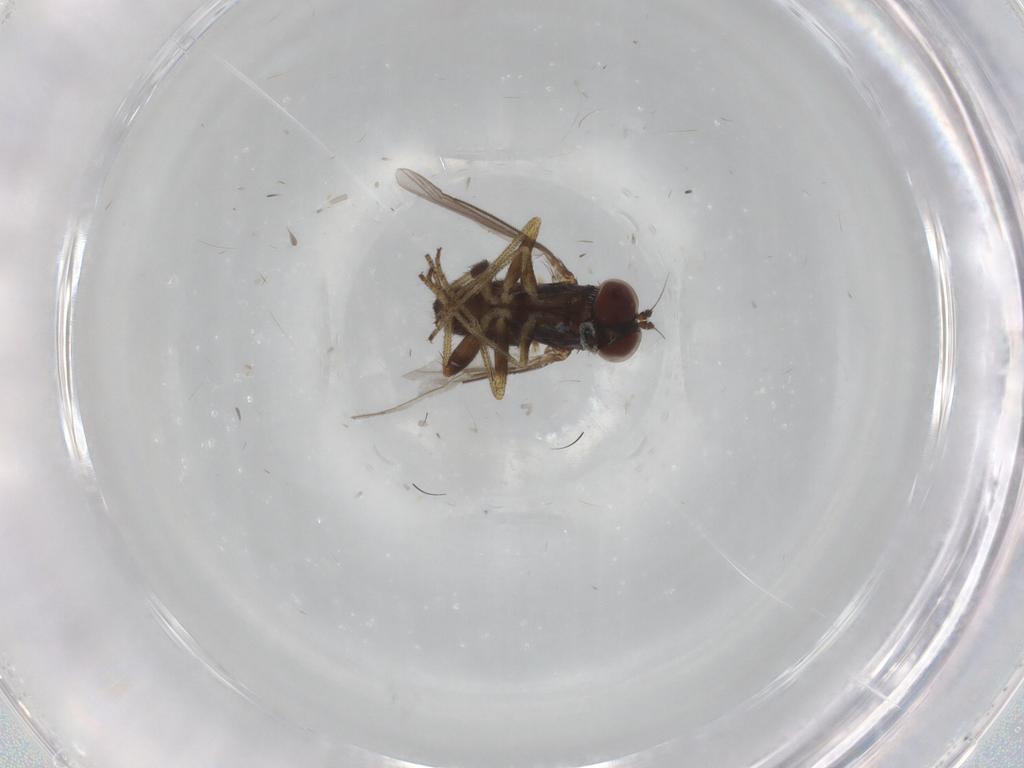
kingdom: Animalia
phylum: Arthropoda
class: Insecta
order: Diptera
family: Dolichopodidae
